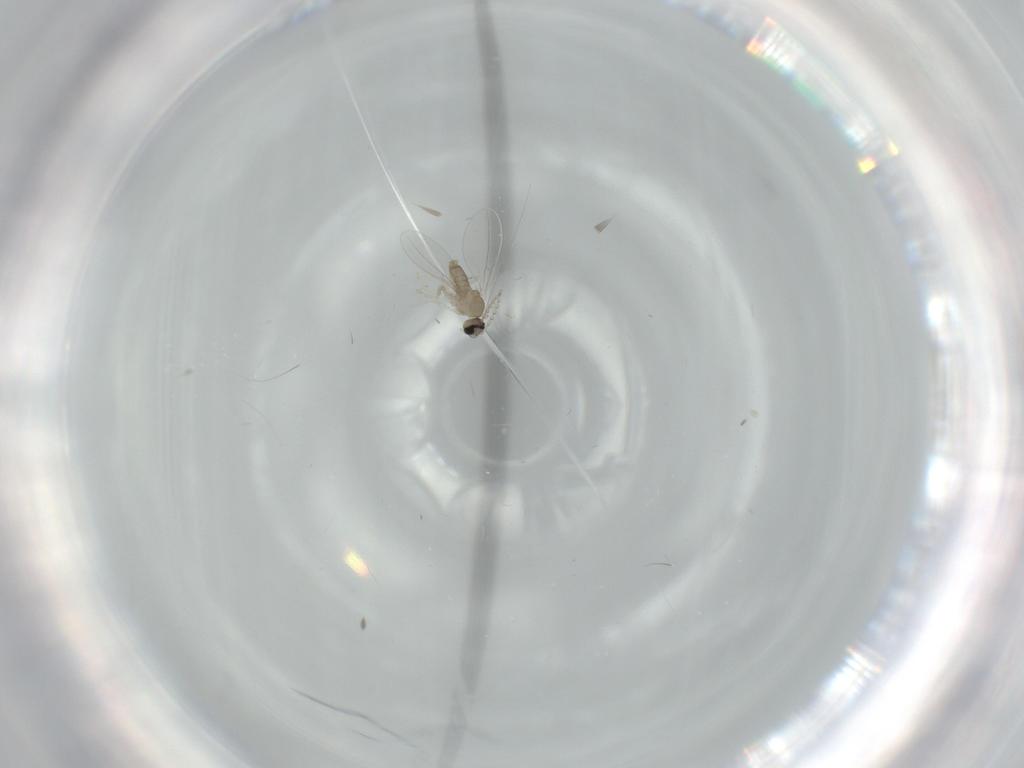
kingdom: Animalia
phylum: Arthropoda
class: Insecta
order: Diptera
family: Cecidomyiidae
